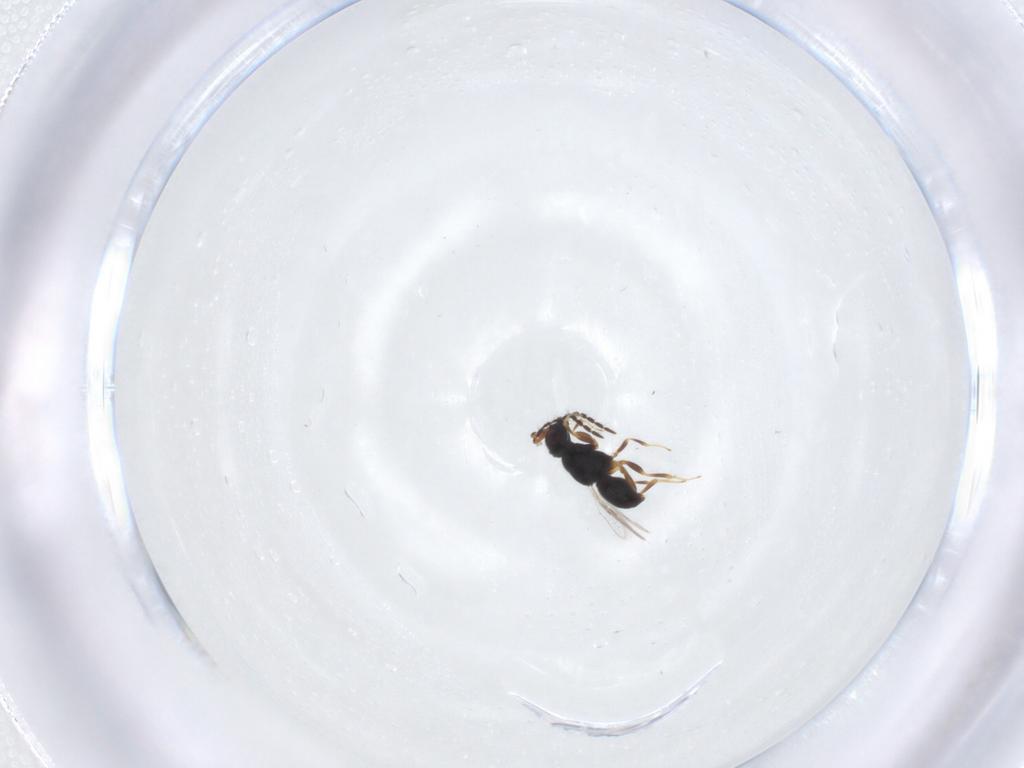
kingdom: Animalia
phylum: Arthropoda
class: Insecta
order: Hymenoptera
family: Ceraphronidae
